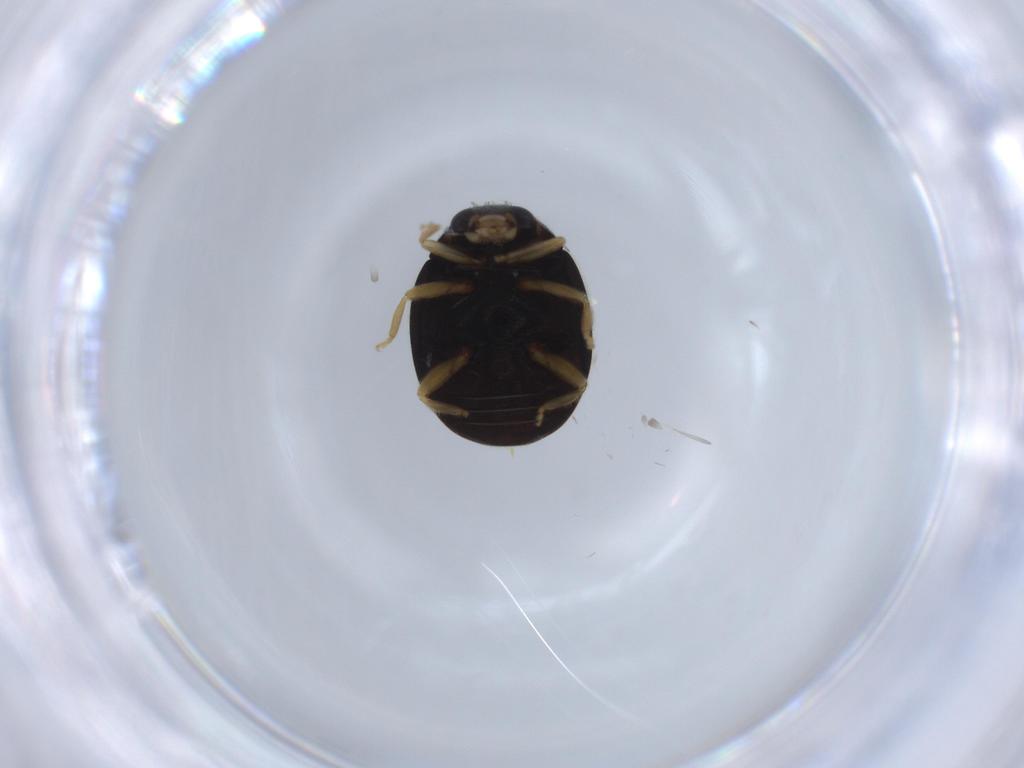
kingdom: Animalia
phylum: Arthropoda
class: Insecta
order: Coleoptera
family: Coccinellidae
